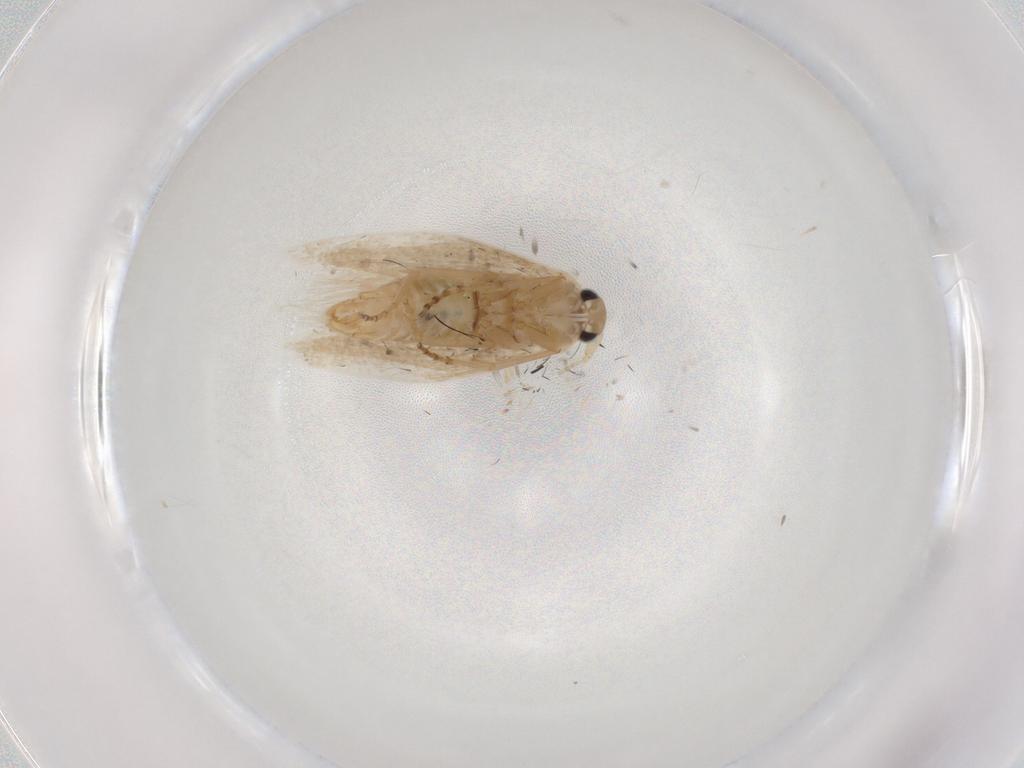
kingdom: Animalia
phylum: Arthropoda
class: Insecta
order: Lepidoptera
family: Bucculatricidae
